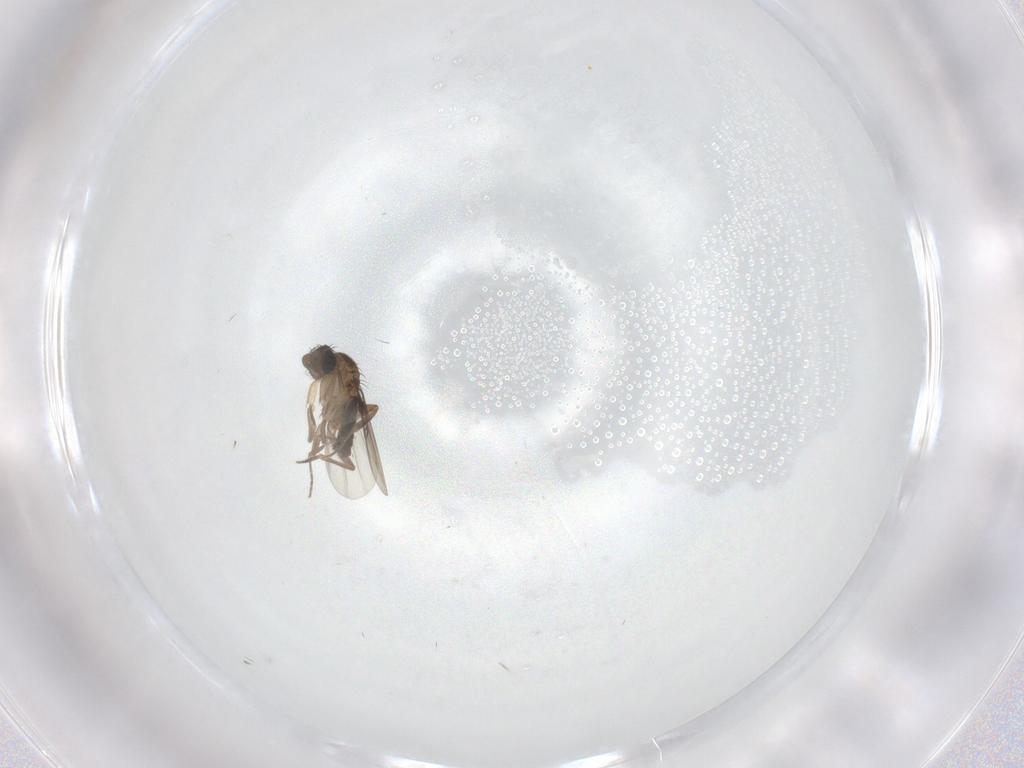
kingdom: Animalia
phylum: Arthropoda
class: Insecta
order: Diptera
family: Phoridae
